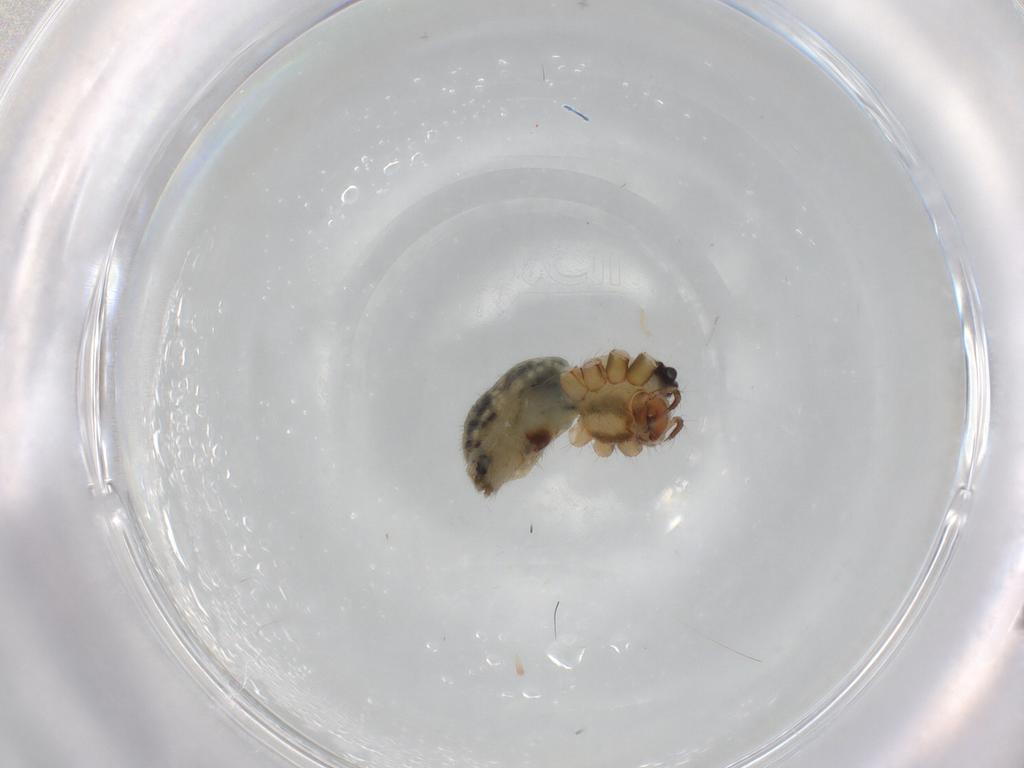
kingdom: Animalia
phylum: Arthropoda
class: Arachnida
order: Araneae
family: Pholcidae
